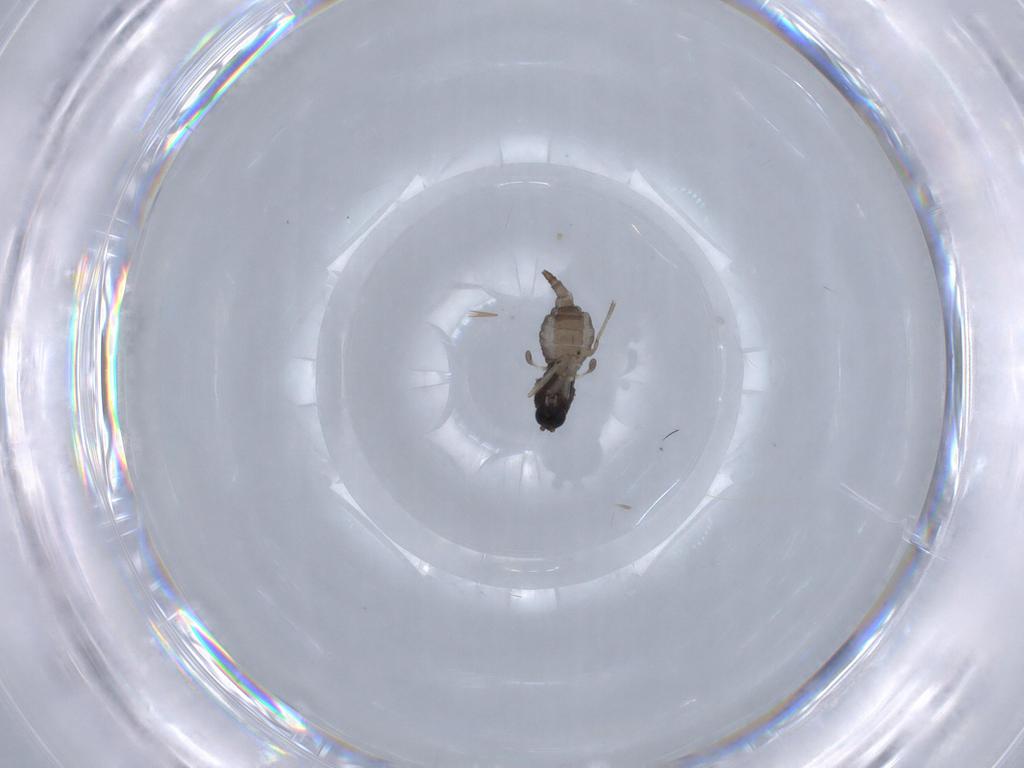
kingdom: Animalia
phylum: Arthropoda
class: Insecta
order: Diptera
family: Sciaridae
